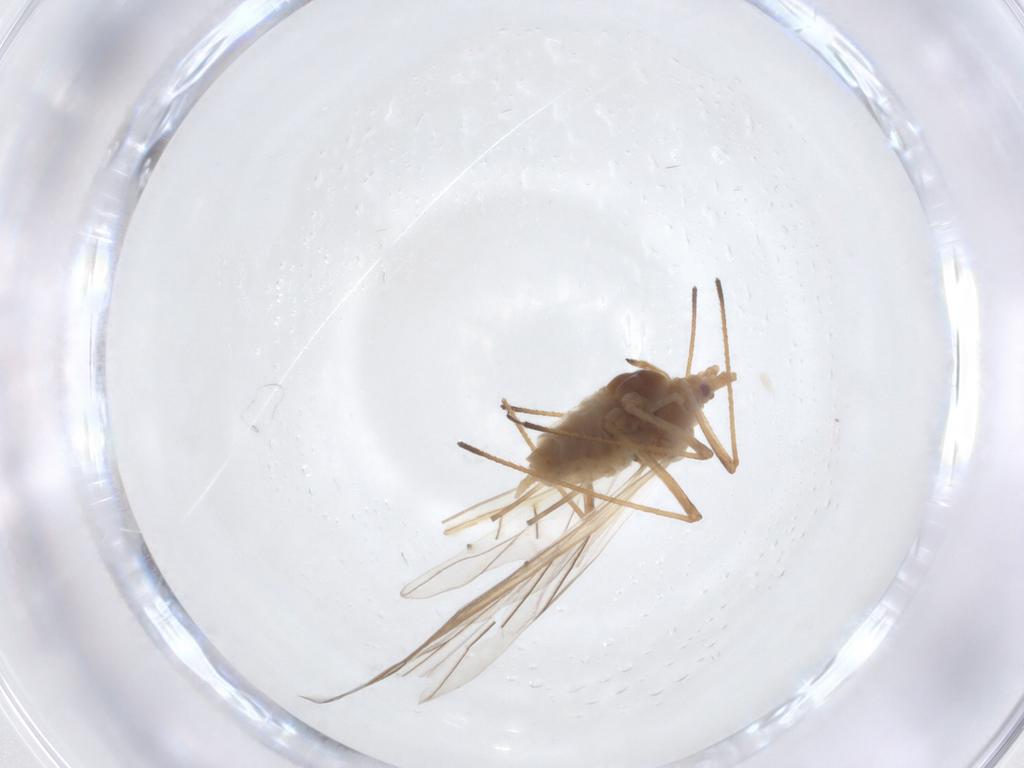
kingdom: Animalia
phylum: Arthropoda
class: Insecta
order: Hemiptera
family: Aphididae
